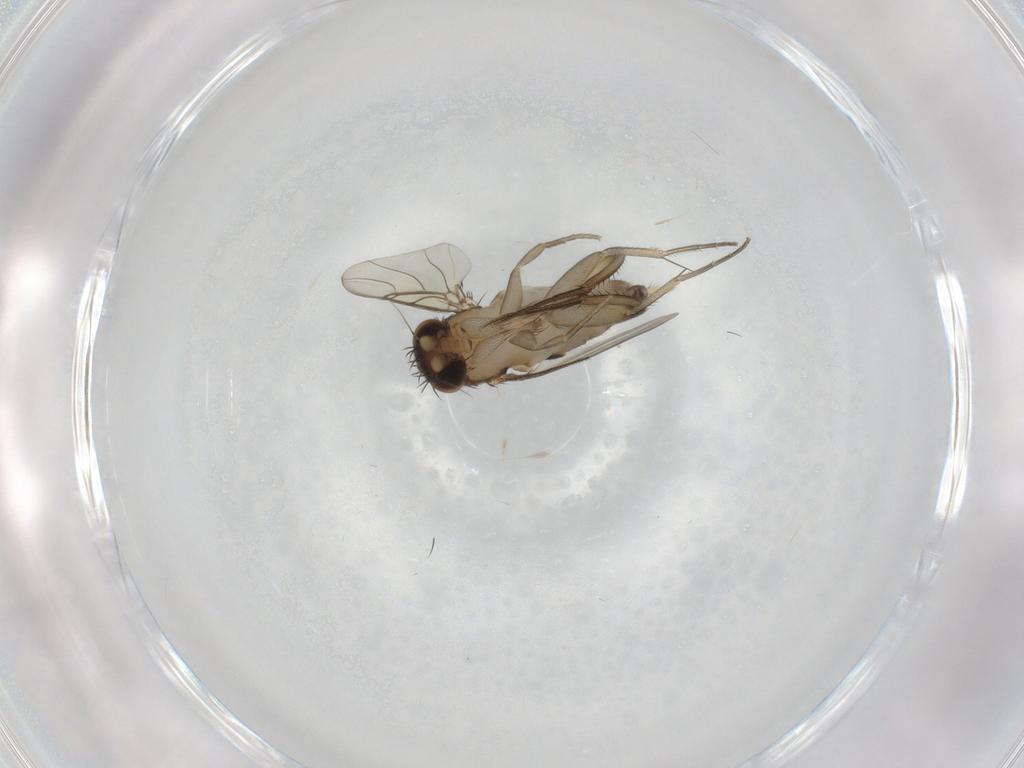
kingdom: Animalia
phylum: Arthropoda
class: Insecta
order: Diptera
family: Phoridae
